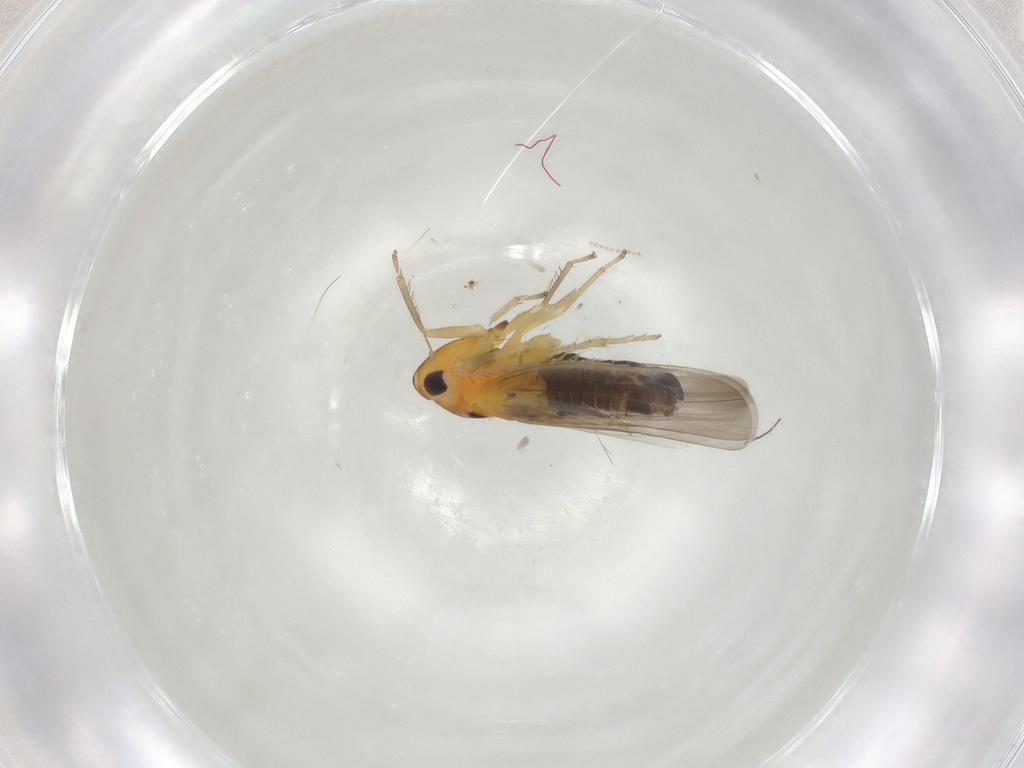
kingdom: Animalia
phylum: Arthropoda
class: Insecta
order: Hemiptera
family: Cicadellidae
